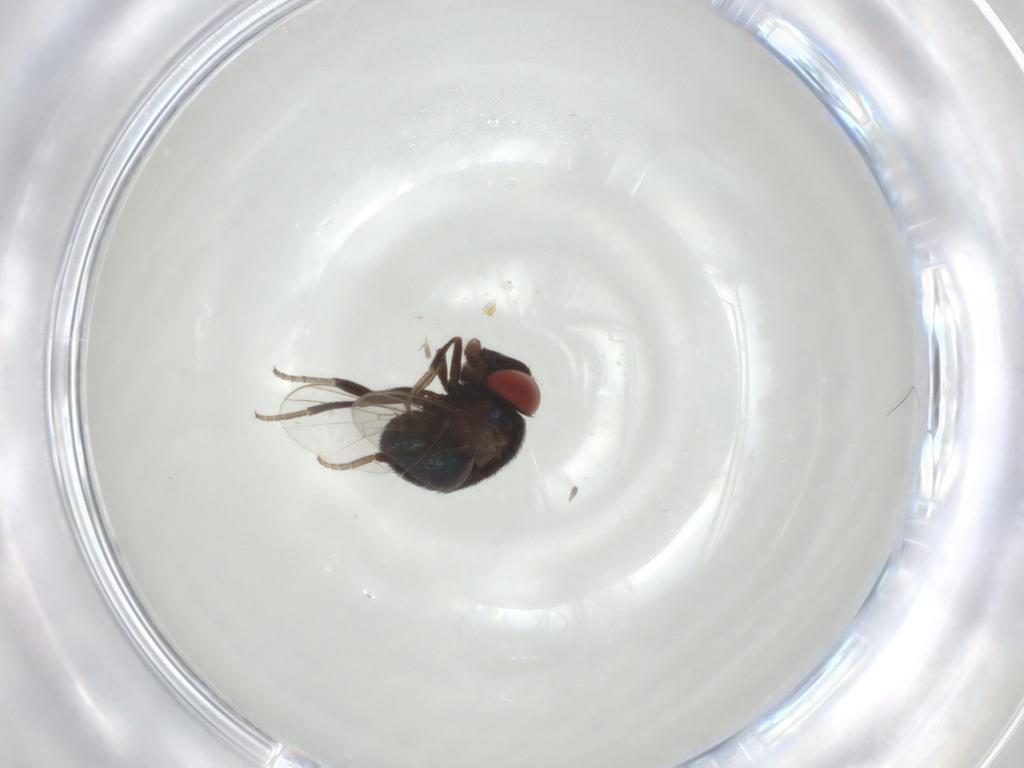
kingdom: Animalia
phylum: Arthropoda
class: Insecta
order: Diptera
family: Cryptochetidae
